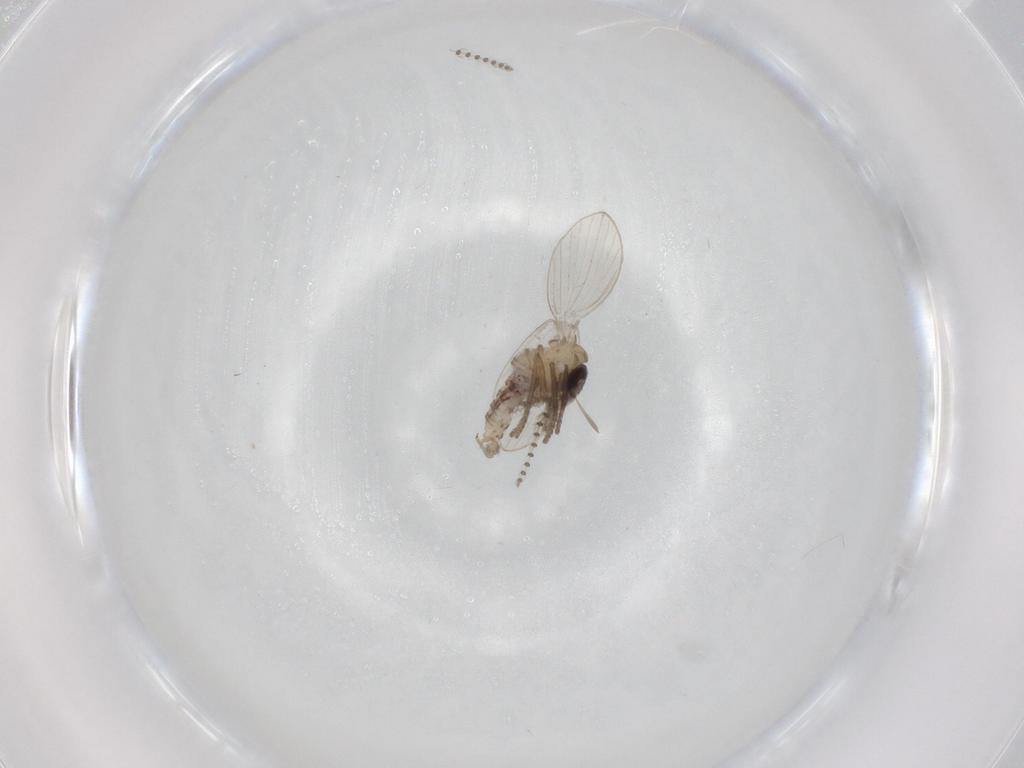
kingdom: Animalia
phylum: Arthropoda
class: Insecta
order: Diptera
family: Psychodidae
